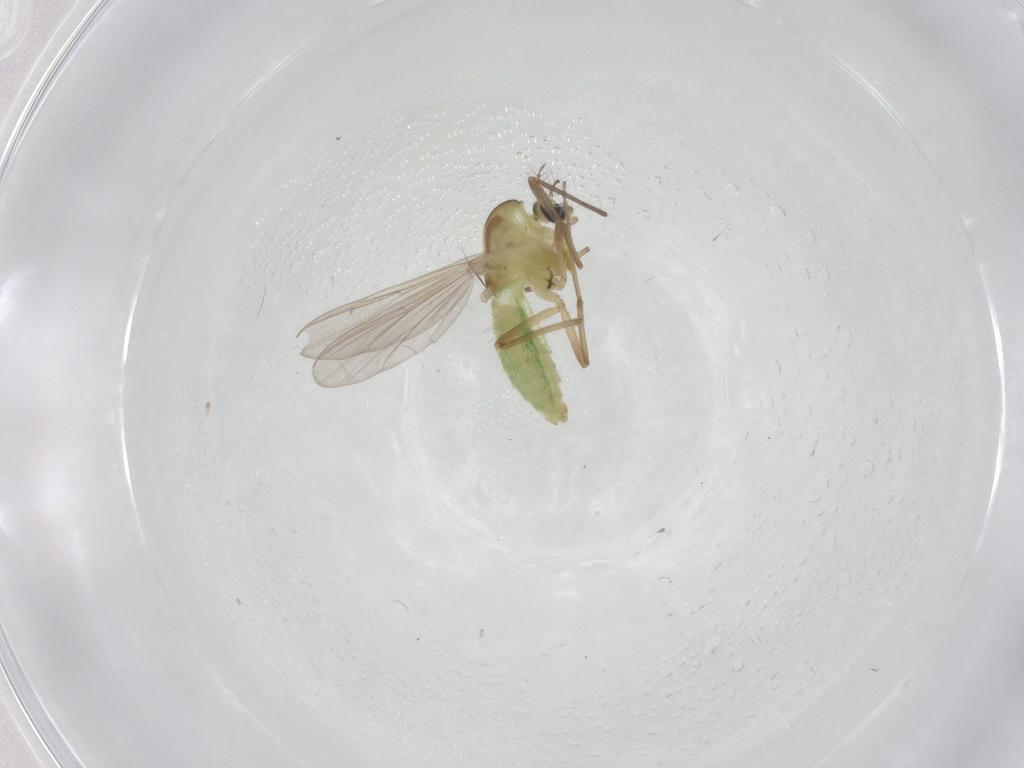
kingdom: Animalia
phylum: Arthropoda
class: Insecta
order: Diptera
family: Chironomidae
